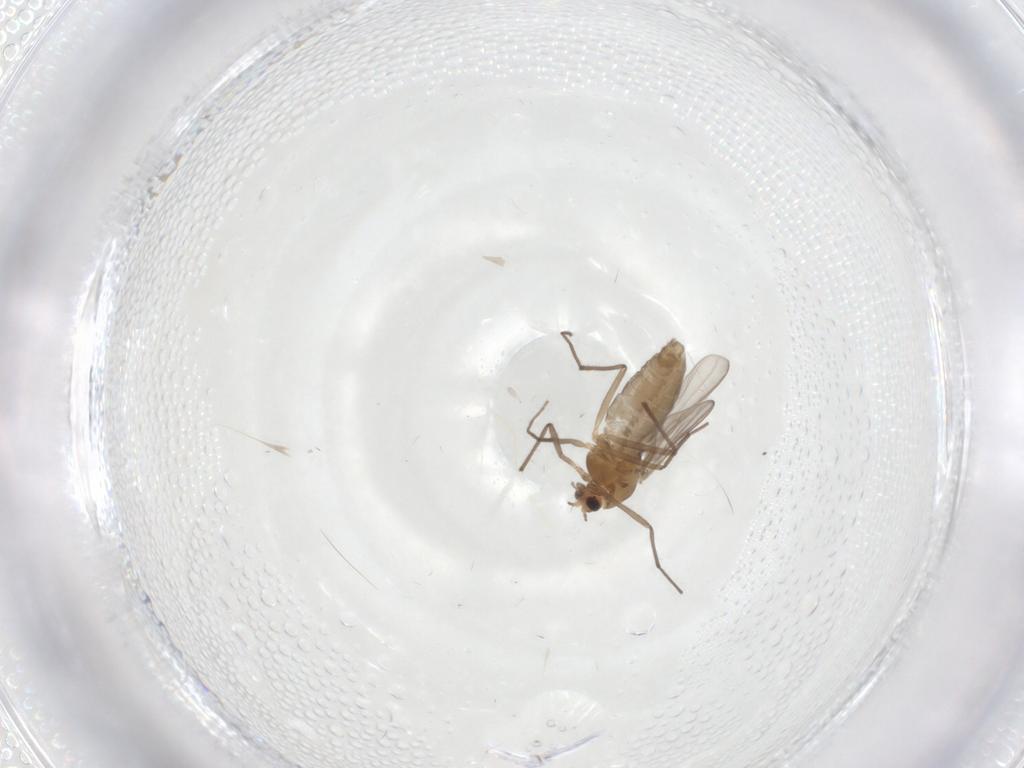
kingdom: Animalia
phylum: Arthropoda
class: Insecta
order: Diptera
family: Chironomidae
